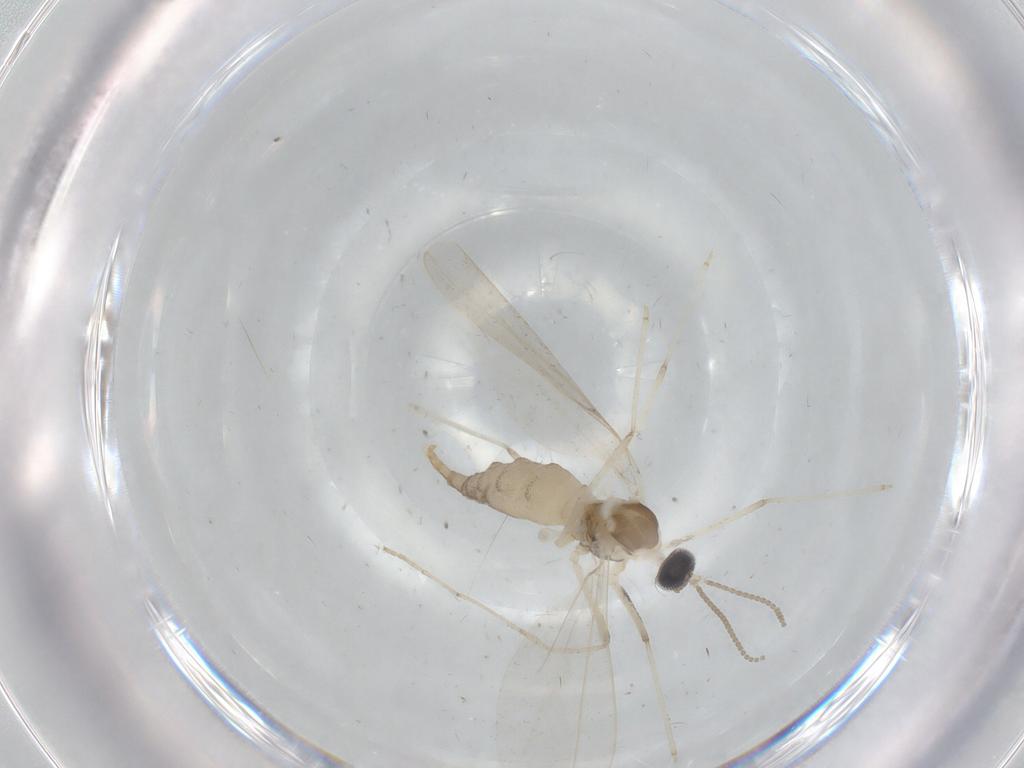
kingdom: Animalia
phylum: Arthropoda
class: Insecta
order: Diptera
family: Cecidomyiidae
